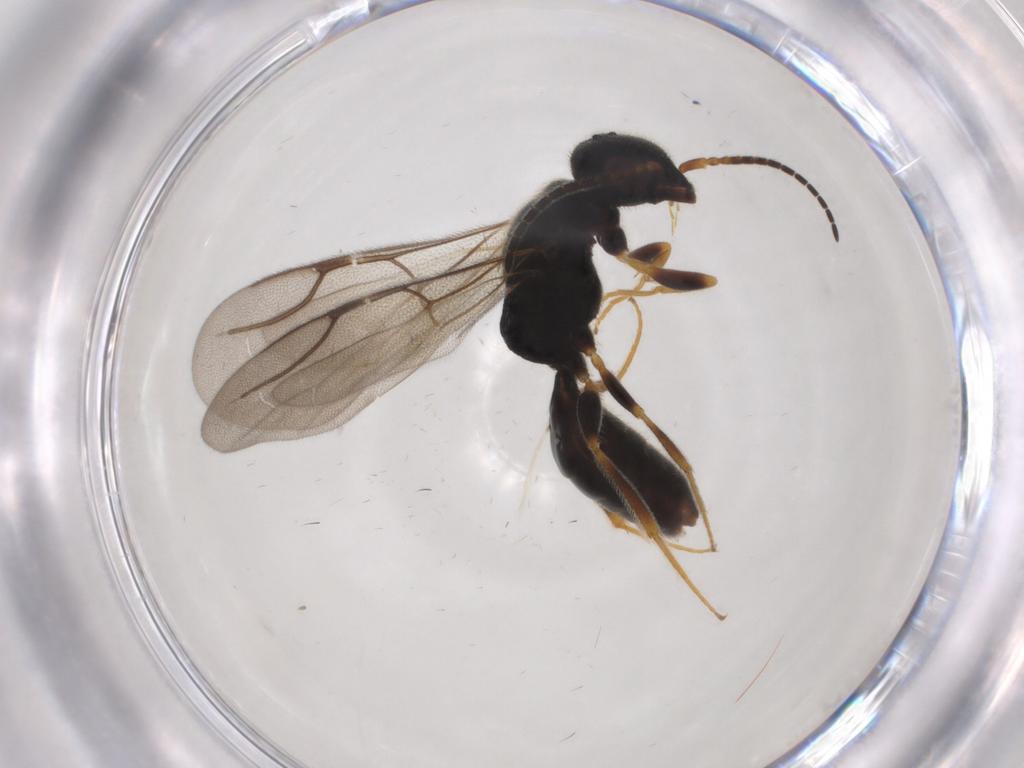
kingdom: Animalia
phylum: Arthropoda
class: Insecta
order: Hymenoptera
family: Bethylidae
